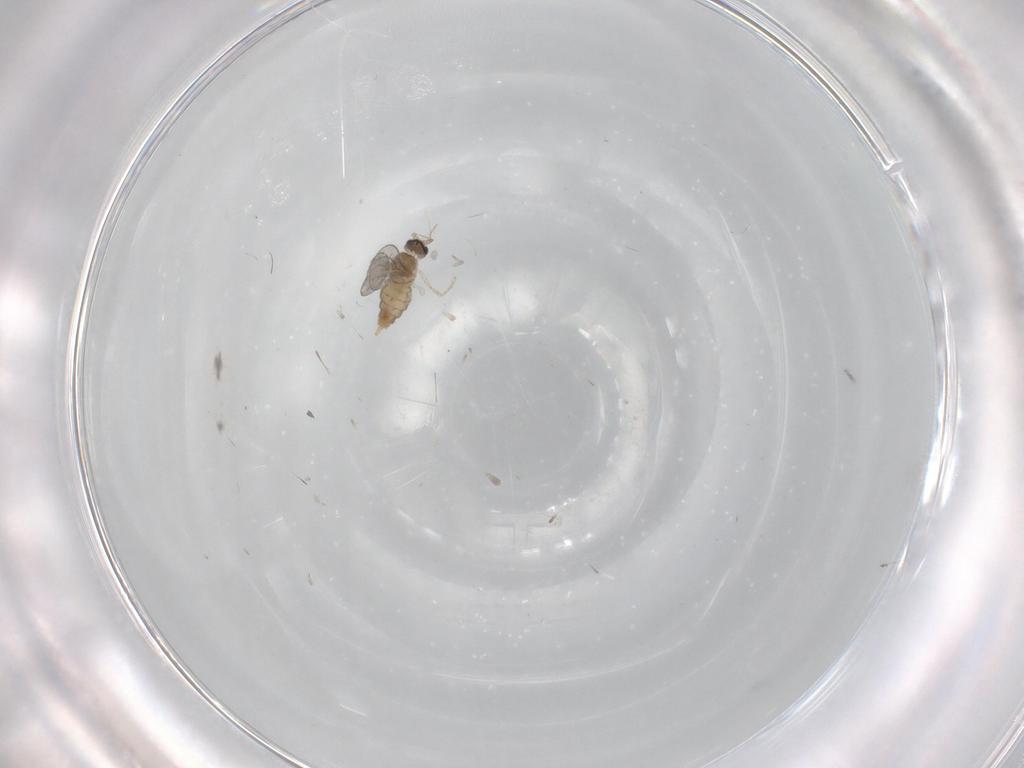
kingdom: Animalia
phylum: Arthropoda
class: Insecta
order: Diptera
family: Cecidomyiidae
